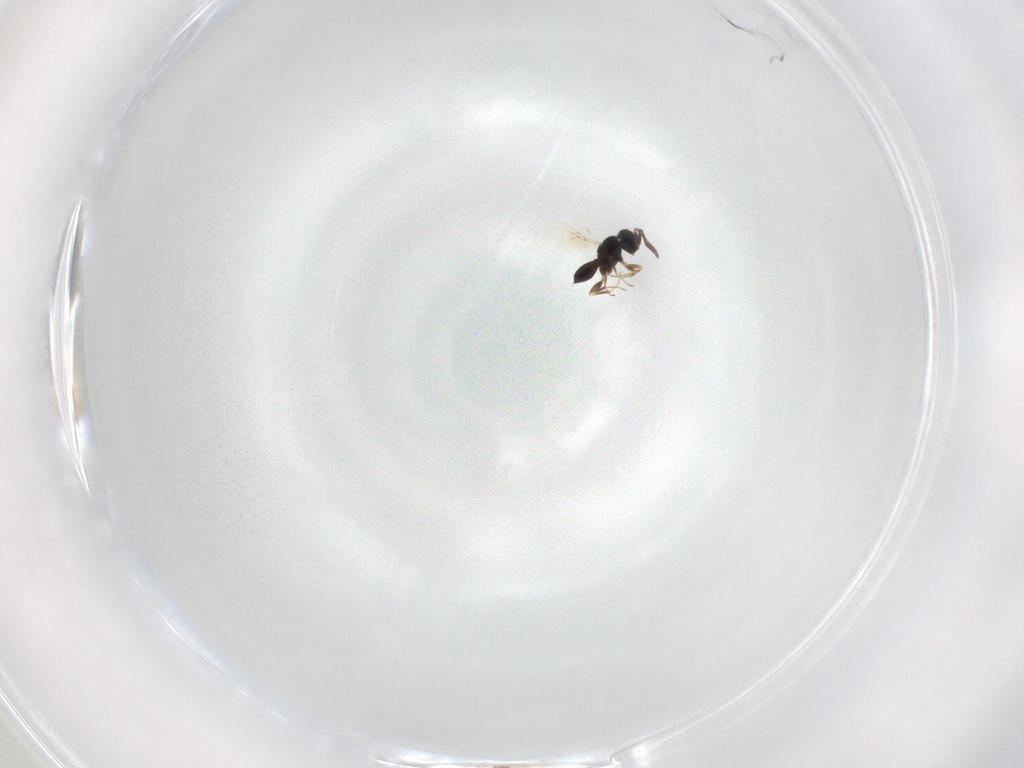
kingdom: Animalia
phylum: Arthropoda
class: Insecta
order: Hymenoptera
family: Scelionidae
